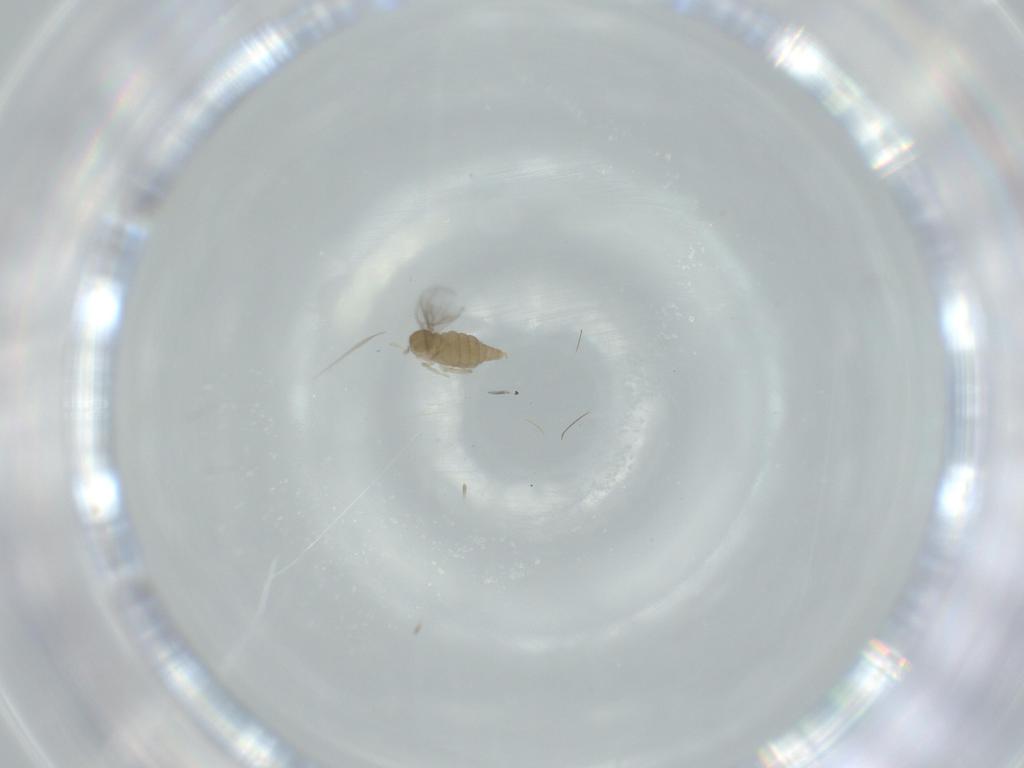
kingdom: Animalia
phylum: Arthropoda
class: Insecta
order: Diptera
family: Cecidomyiidae
